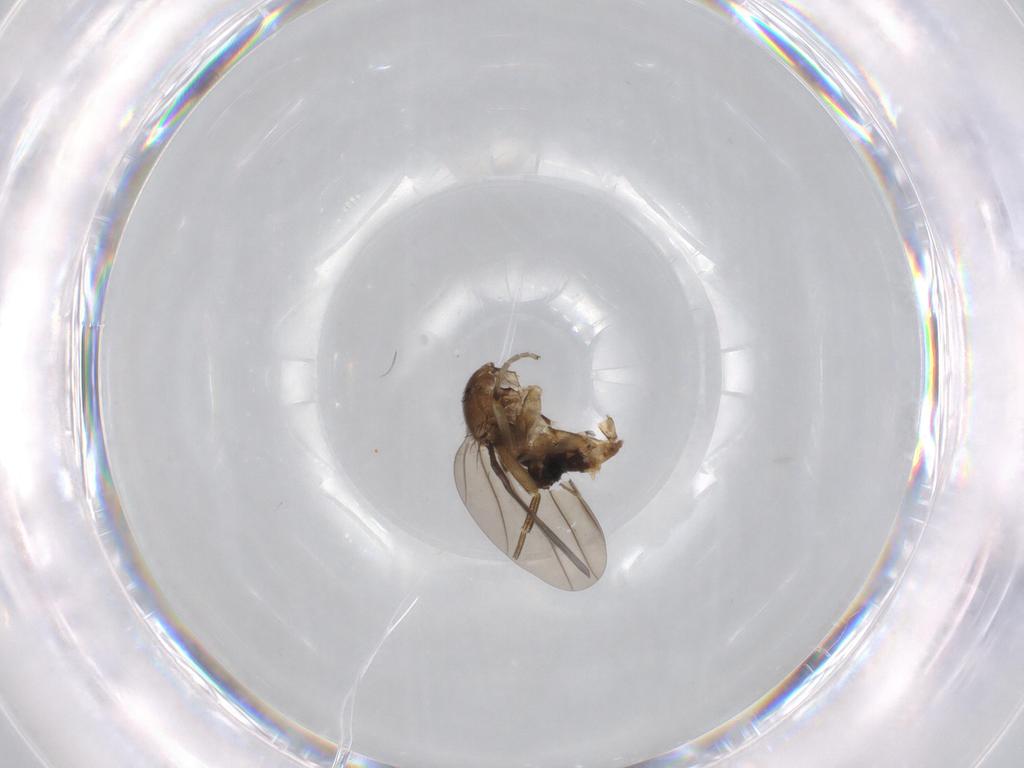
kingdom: Animalia
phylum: Arthropoda
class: Insecta
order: Diptera
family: Sciaridae
